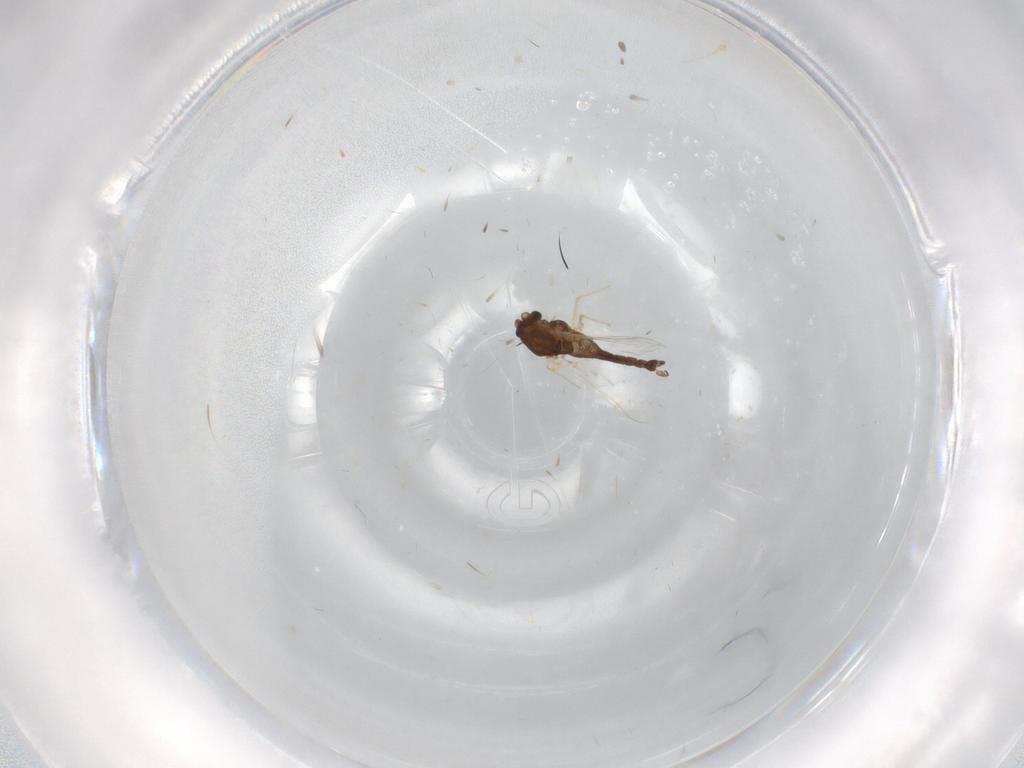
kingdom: Animalia
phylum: Arthropoda
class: Insecta
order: Diptera
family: Chironomidae
